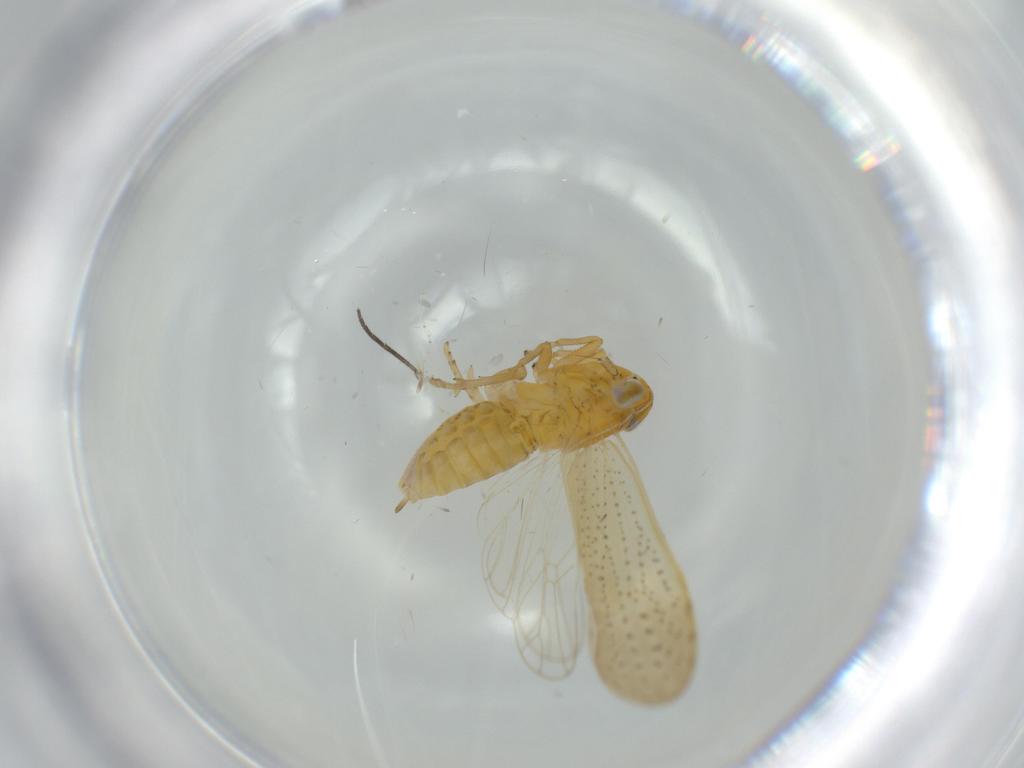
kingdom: Animalia
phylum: Arthropoda
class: Insecta
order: Hemiptera
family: Delphacidae
